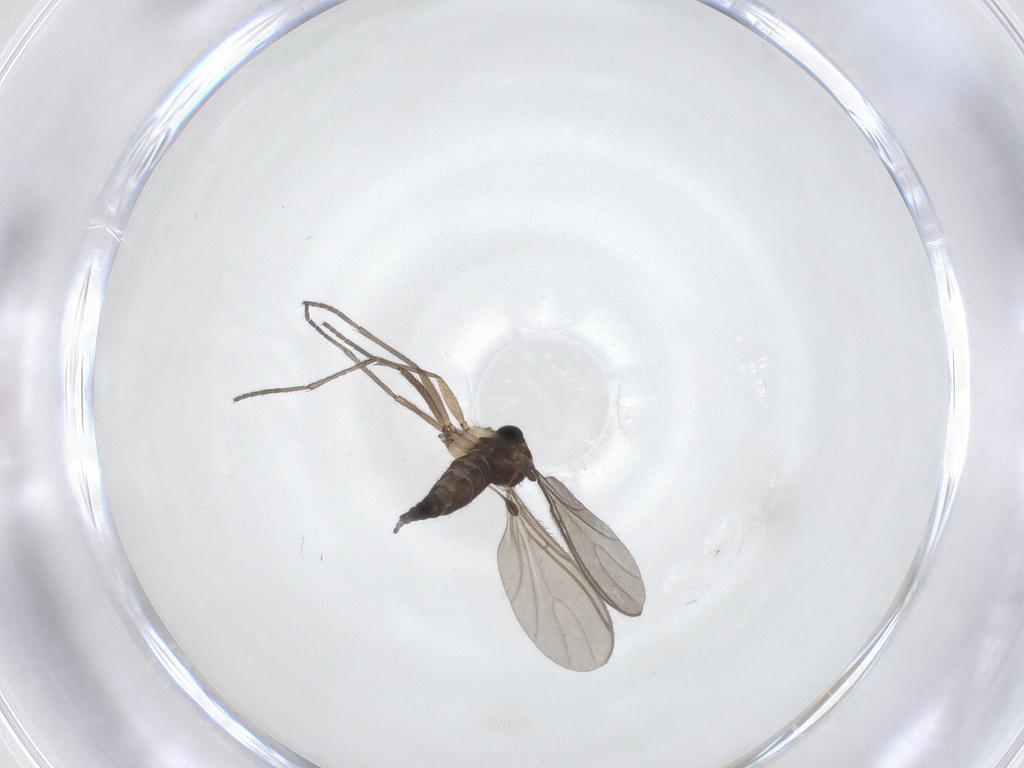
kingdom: Animalia
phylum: Arthropoda
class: Insecta
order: Diptera
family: Sciaridae
